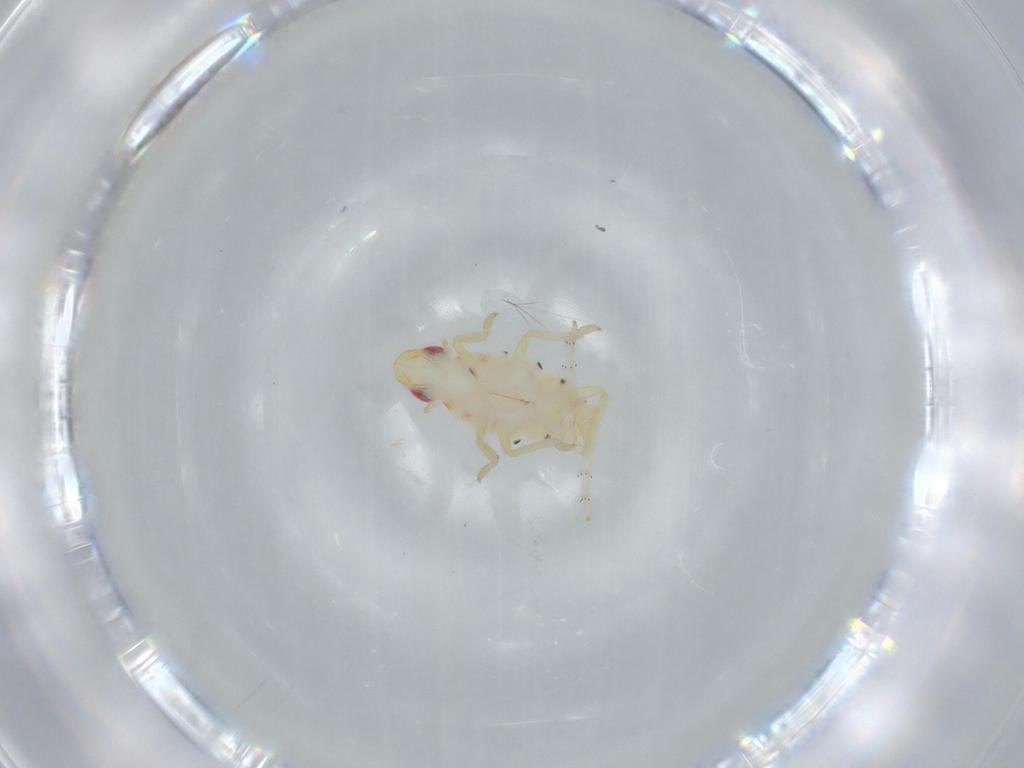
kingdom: Animalia
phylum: Arthropoda
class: Insecta
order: Hemiptera
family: Tropiduchidae
